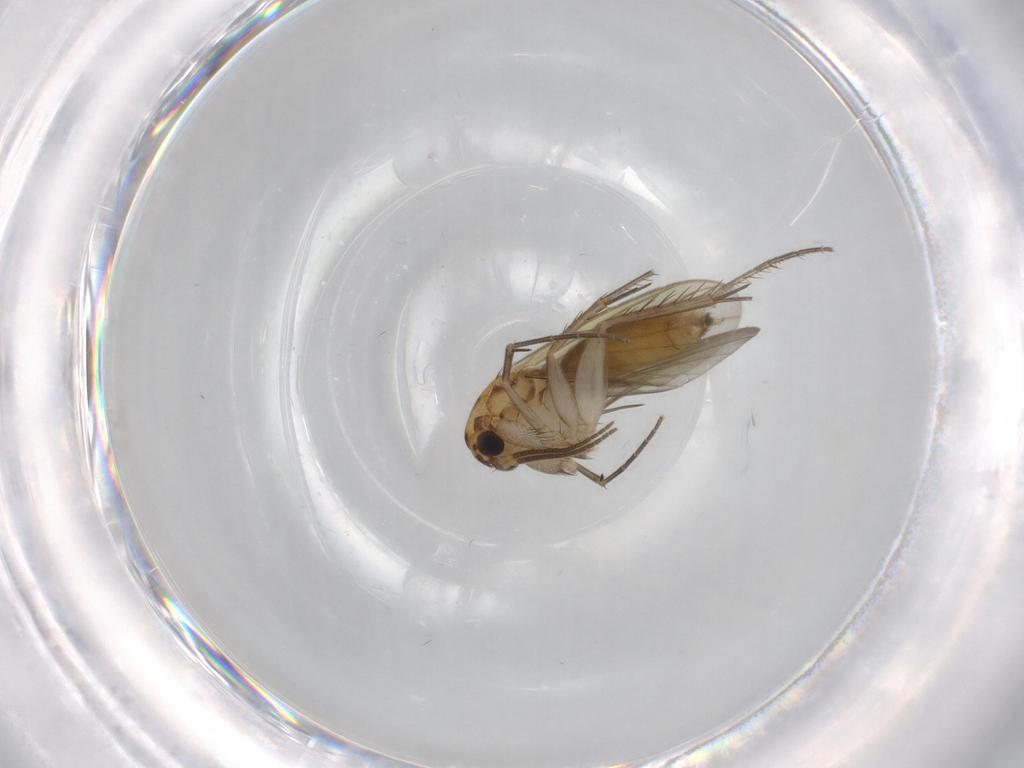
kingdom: Animalia
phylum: Arthropoda
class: Insecta
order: Diptera
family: Mycetophilidae
